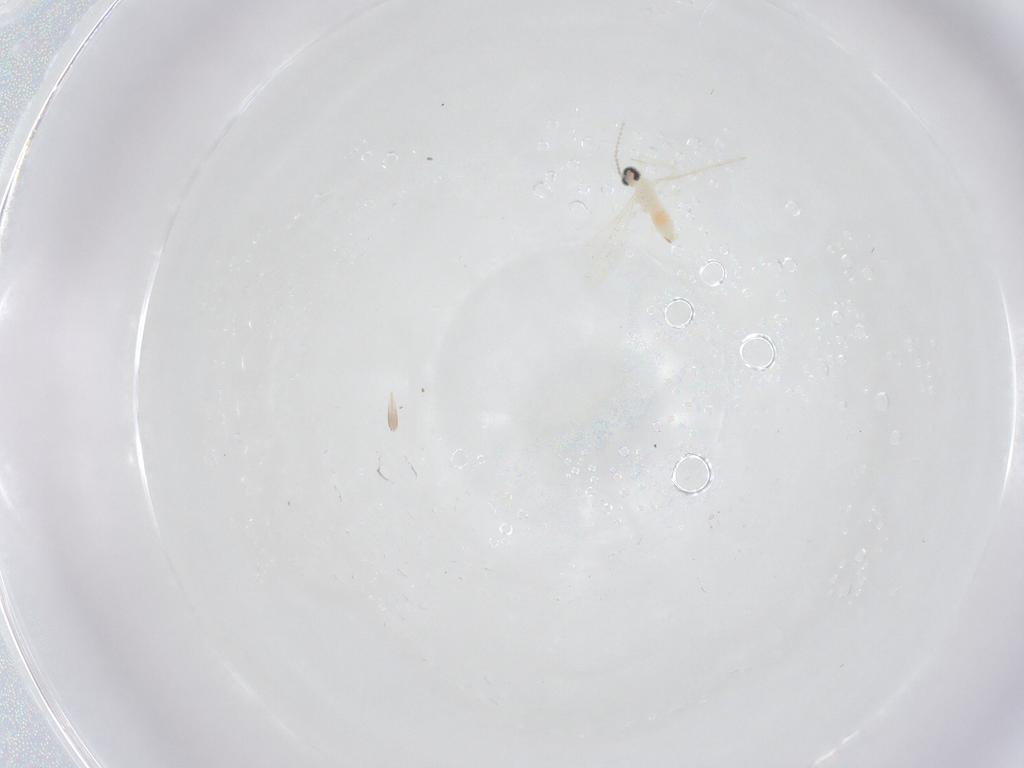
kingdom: Animalia
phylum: Arthropoda
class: Insecta
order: Diptera
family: Cecidomyiidae
